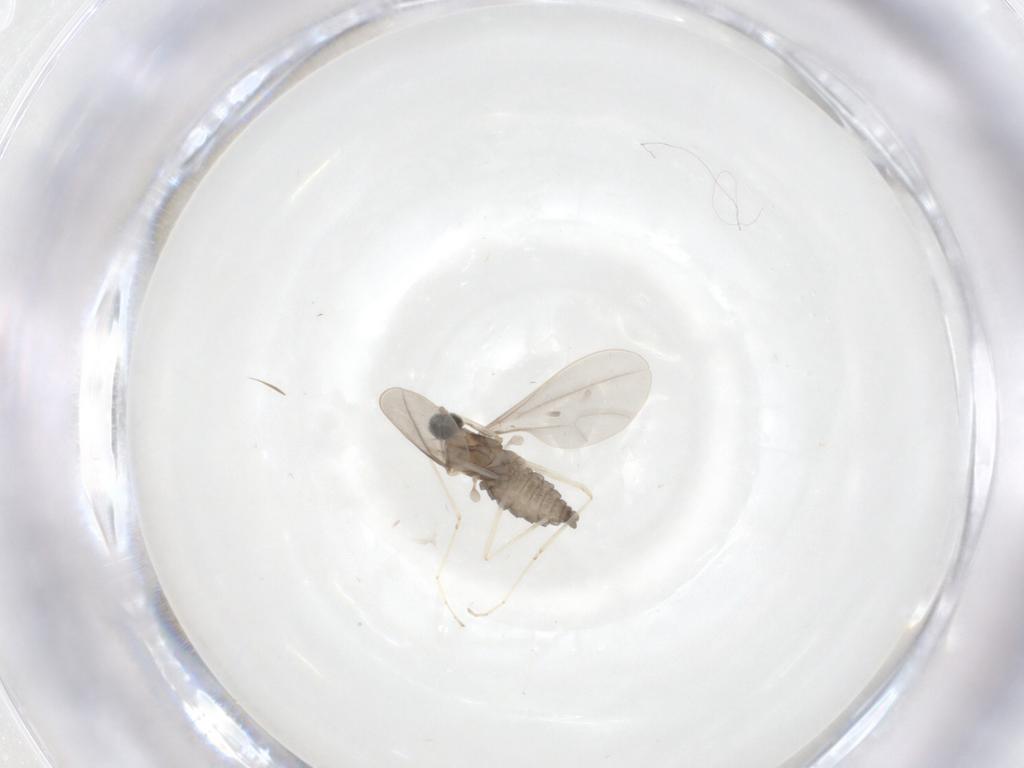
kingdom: Animalia
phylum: Arthropoda
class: Insecta
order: Diptera
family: Cecidomyiidae
